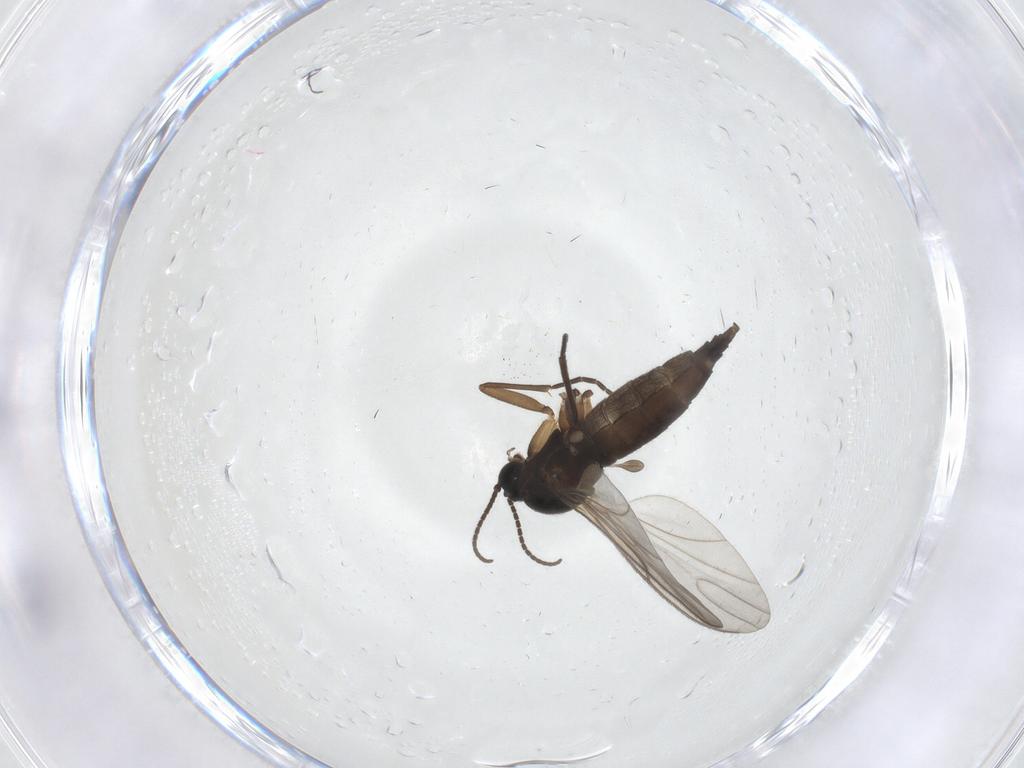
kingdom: Animalia
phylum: Arthropoda
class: Insecta
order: Diptera
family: Sciaridae
